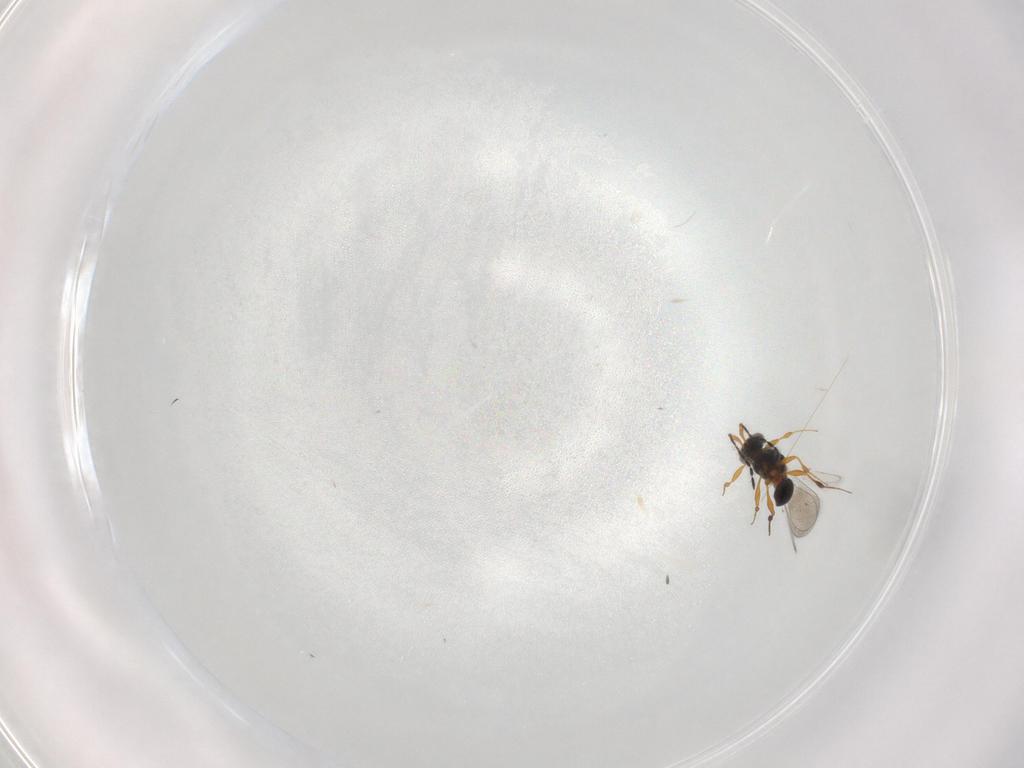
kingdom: Animalia
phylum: Arthropoda
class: Insecta
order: Hymenoptera
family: Platygastridae
